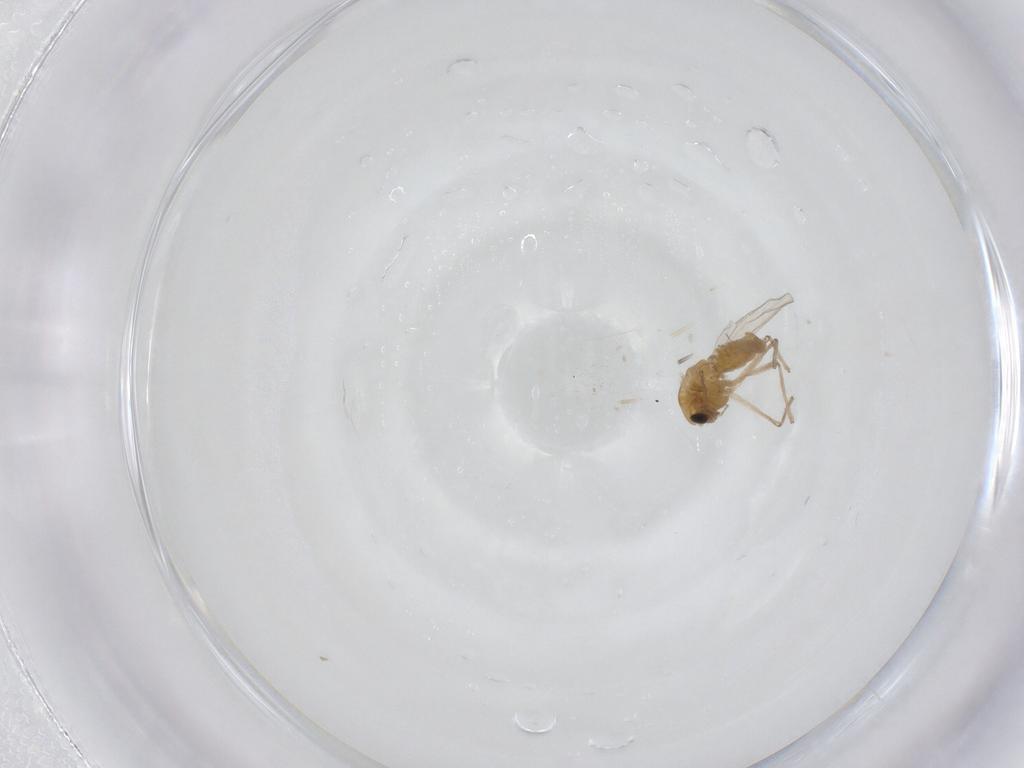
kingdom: Animalia
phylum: Arthropoda
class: Insecta
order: Diptera
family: Chironomidae
